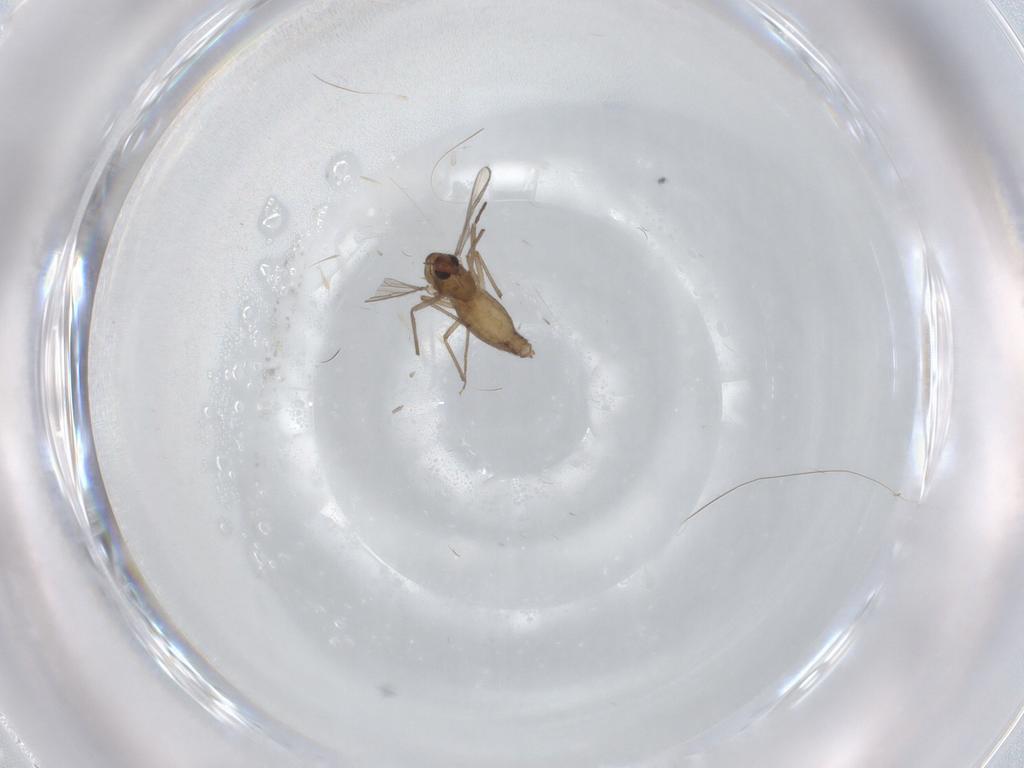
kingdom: Animalia
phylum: Arthropoda
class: Insecta
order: Diptera
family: Chironomidae
